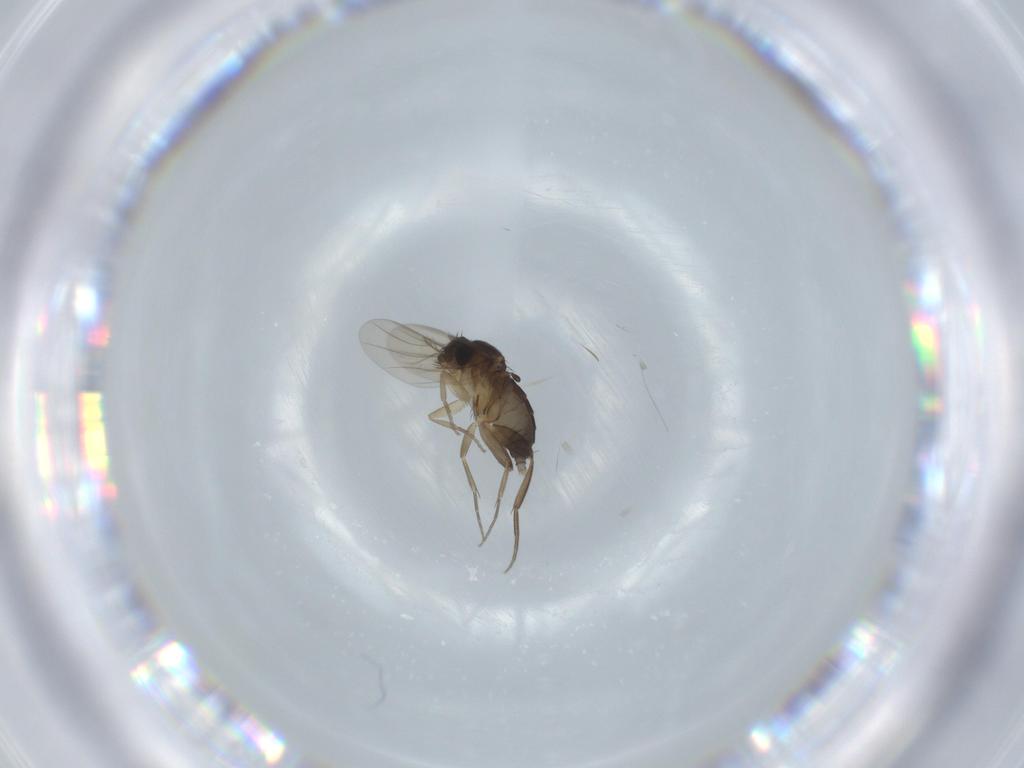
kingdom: Animalia
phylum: Arthropoda
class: Insecta
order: Diptera
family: Phoridae
